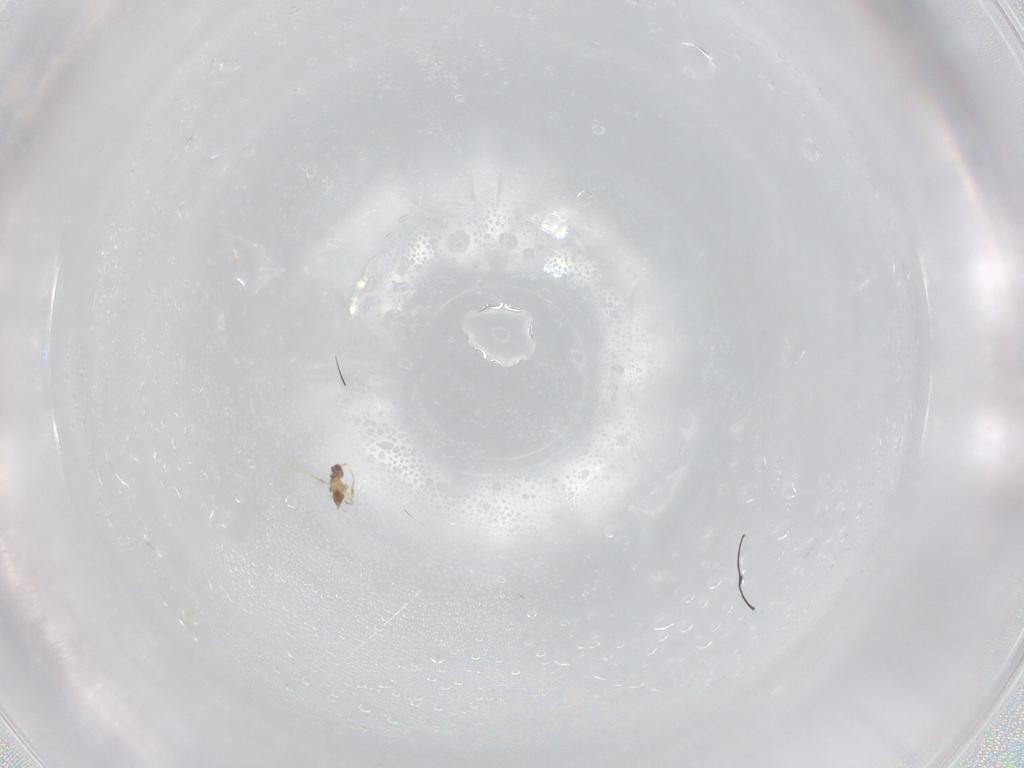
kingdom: Animalia
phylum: Arthropoda
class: Insecta
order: Hymenoptera
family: Mymaridae
